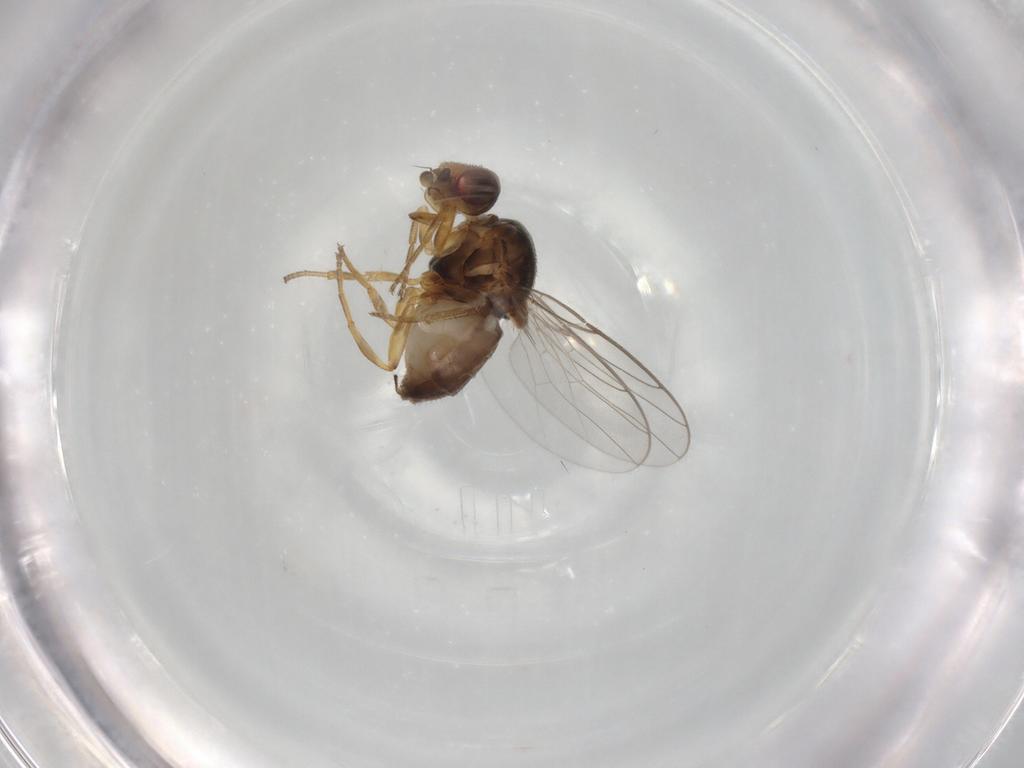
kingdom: Animalia
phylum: Arthropoda
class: Insecta
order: Diptera
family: Chloropidae
